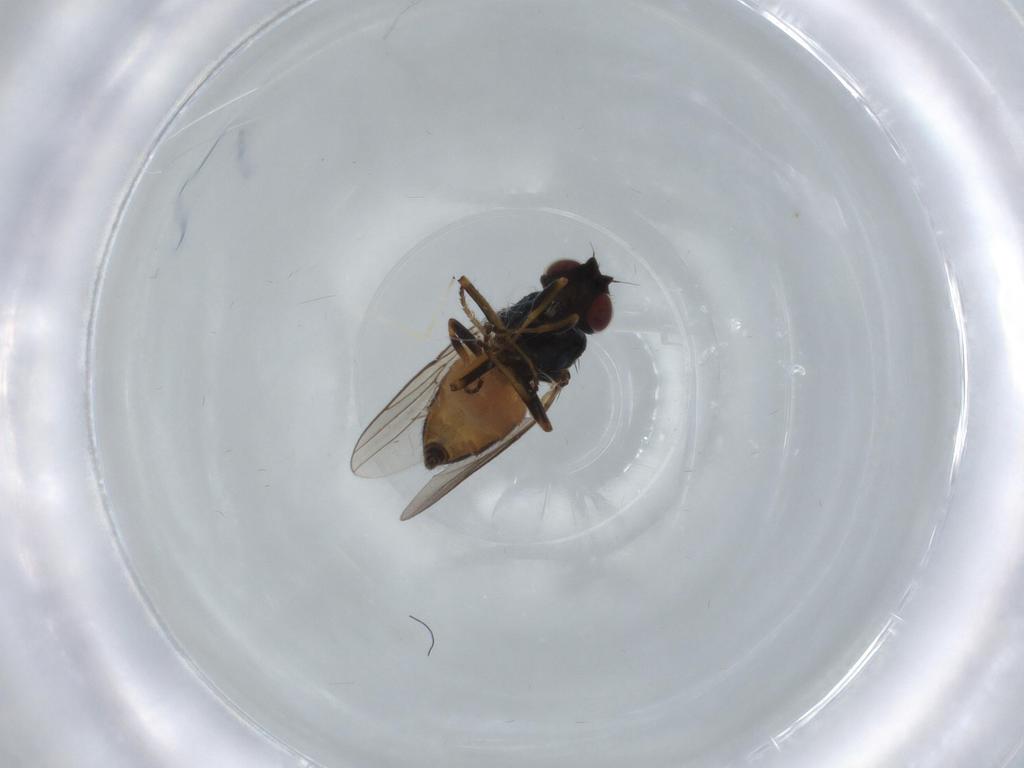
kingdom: Animalia
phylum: Arthropoda
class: Insecta
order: Diptera
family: Chloropidae
